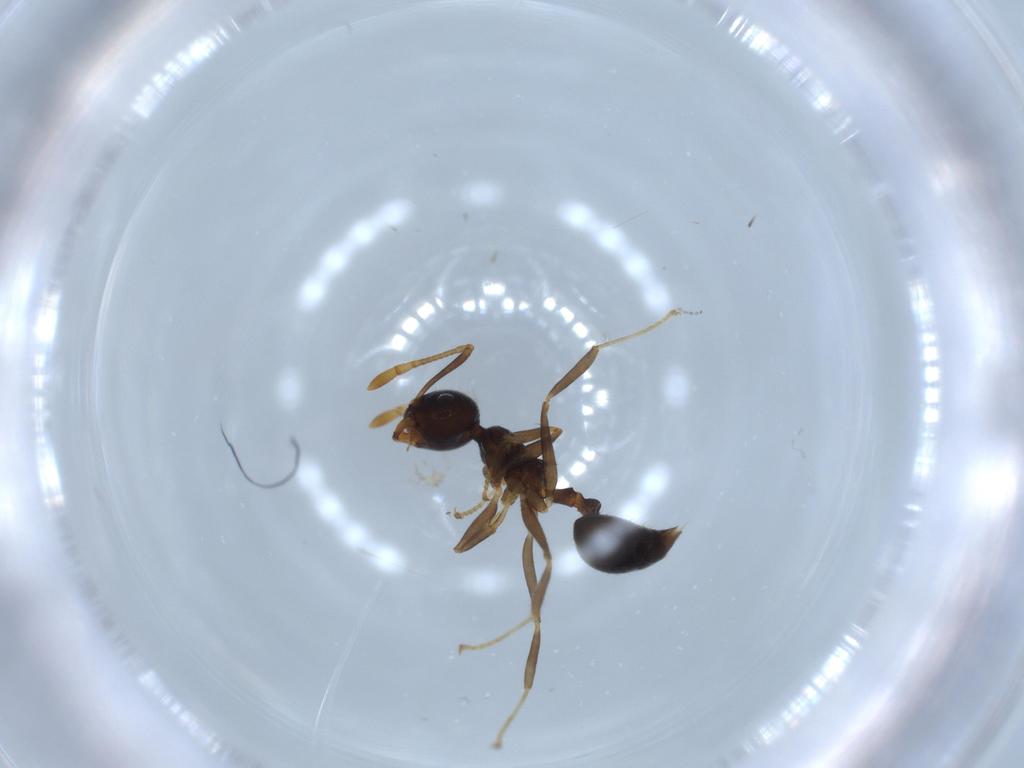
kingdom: Animalia
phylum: Arthropoda
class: Insecta
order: Hymenoptera
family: Formicidae
